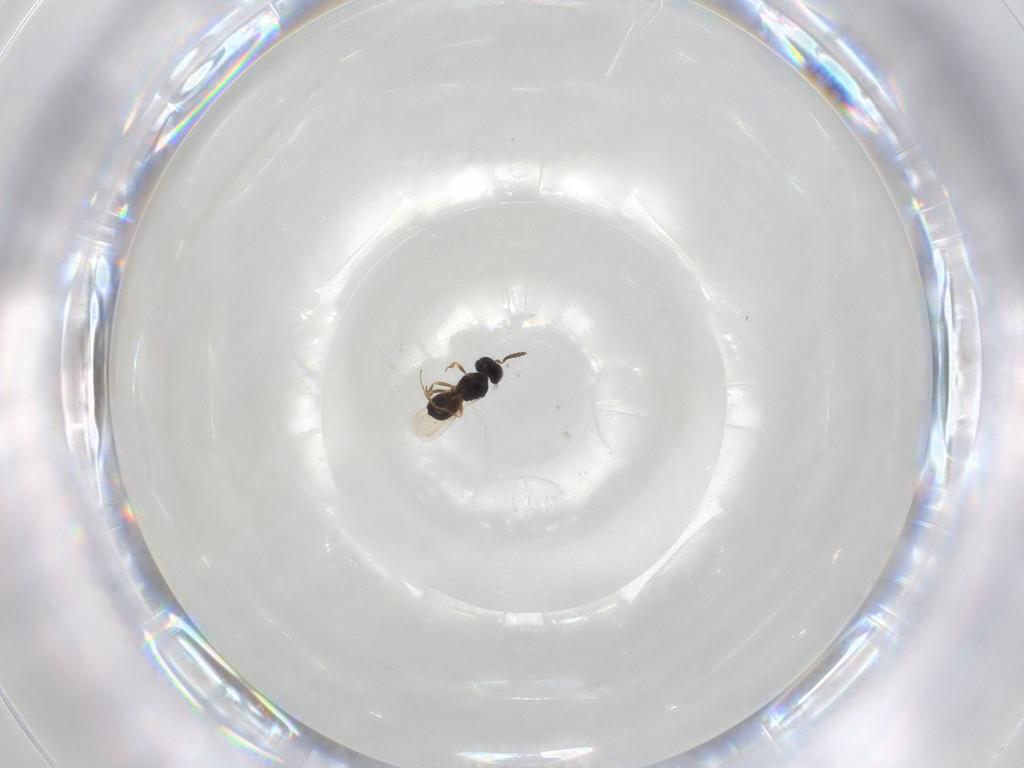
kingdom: Animalia
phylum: Arthropoda
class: Insecta
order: Hymenoptera
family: Scelionidae
